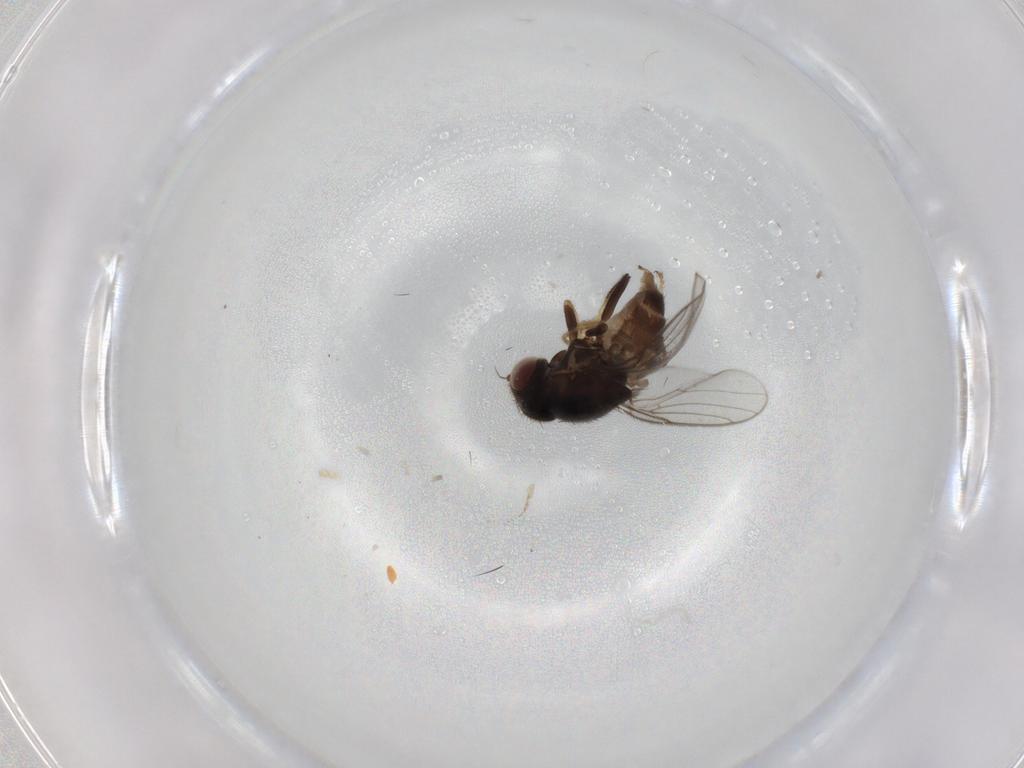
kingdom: Animalia
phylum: Arthropoda
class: Insecta
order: Diptera
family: Chloropidae
